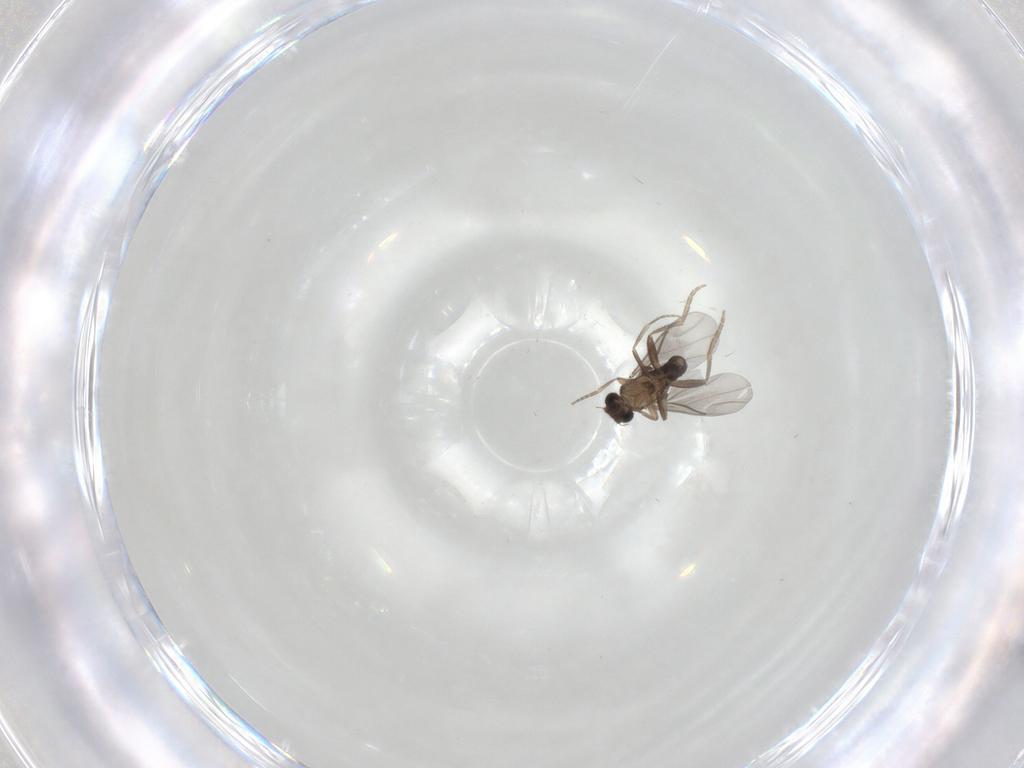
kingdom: Animalia
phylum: Arthropoda
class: Insecta
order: Diptera
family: Phoridae
